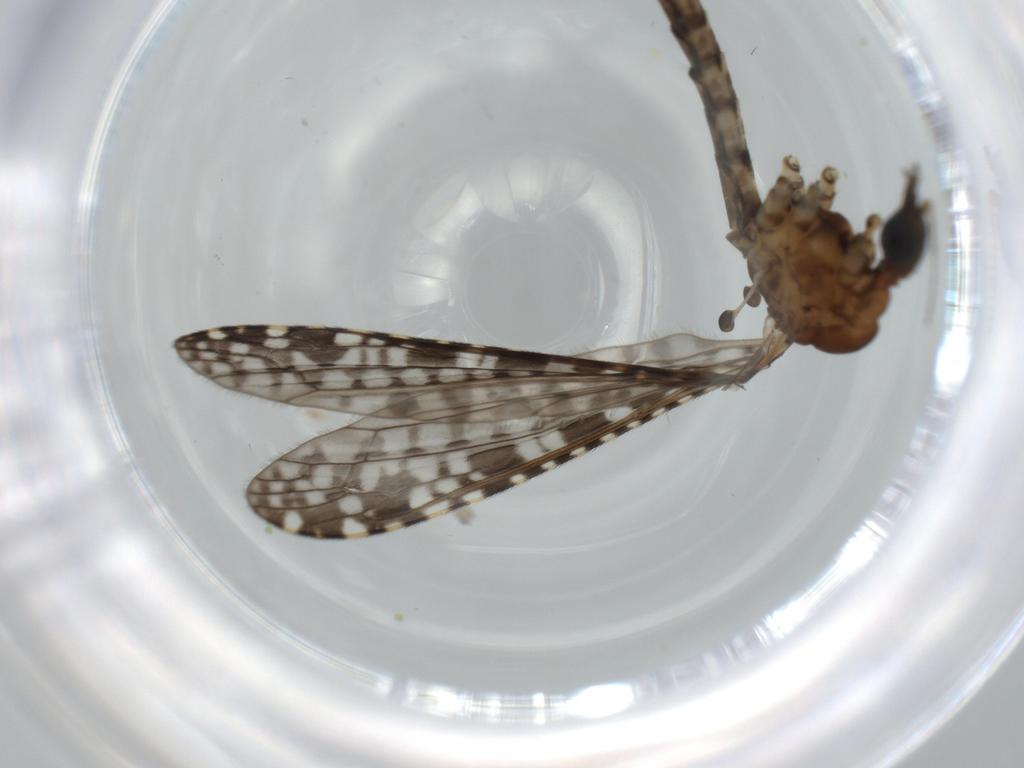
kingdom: Animalia
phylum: Arthropoda
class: Insecta
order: Diptera
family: Limoniidae
